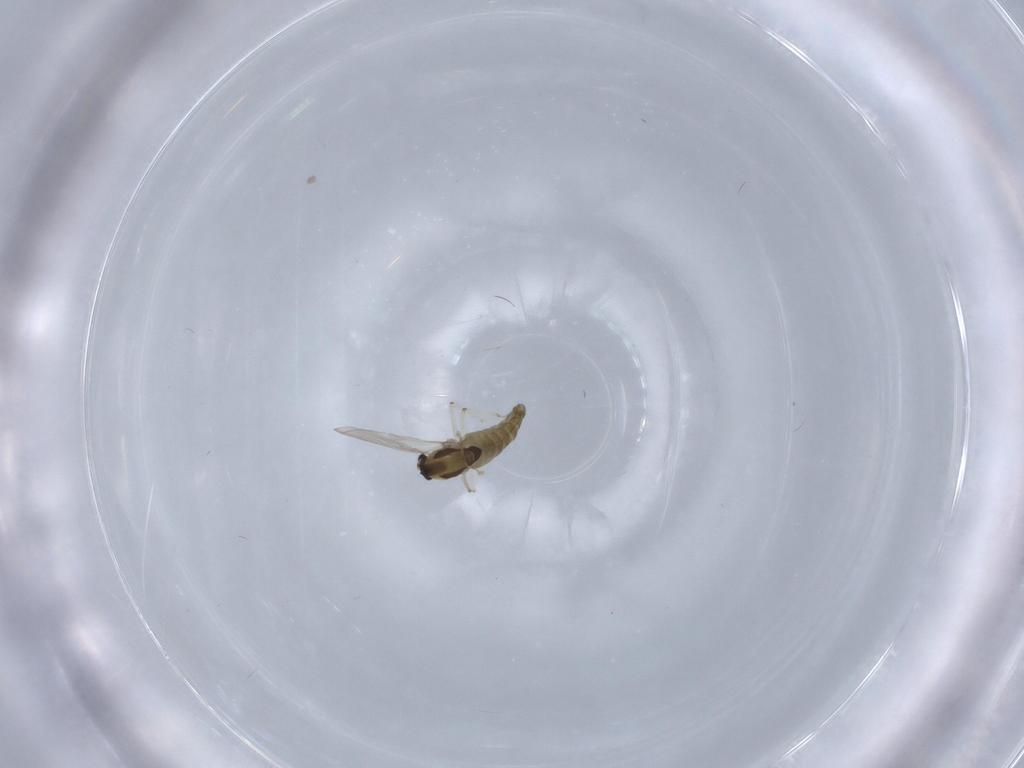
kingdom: Animalia
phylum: Arthropoda
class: Insecta
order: Diptera
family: Chironomidae
